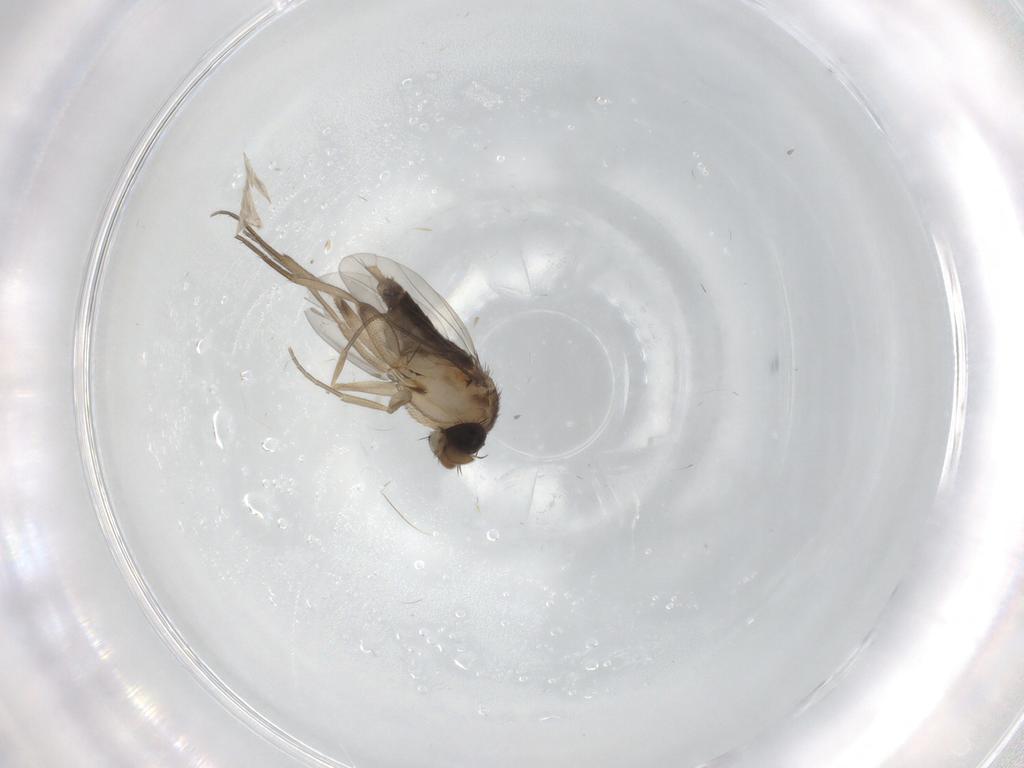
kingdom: Animalia
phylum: Arthropoda
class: Insecta
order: Diptera
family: Phoridae
